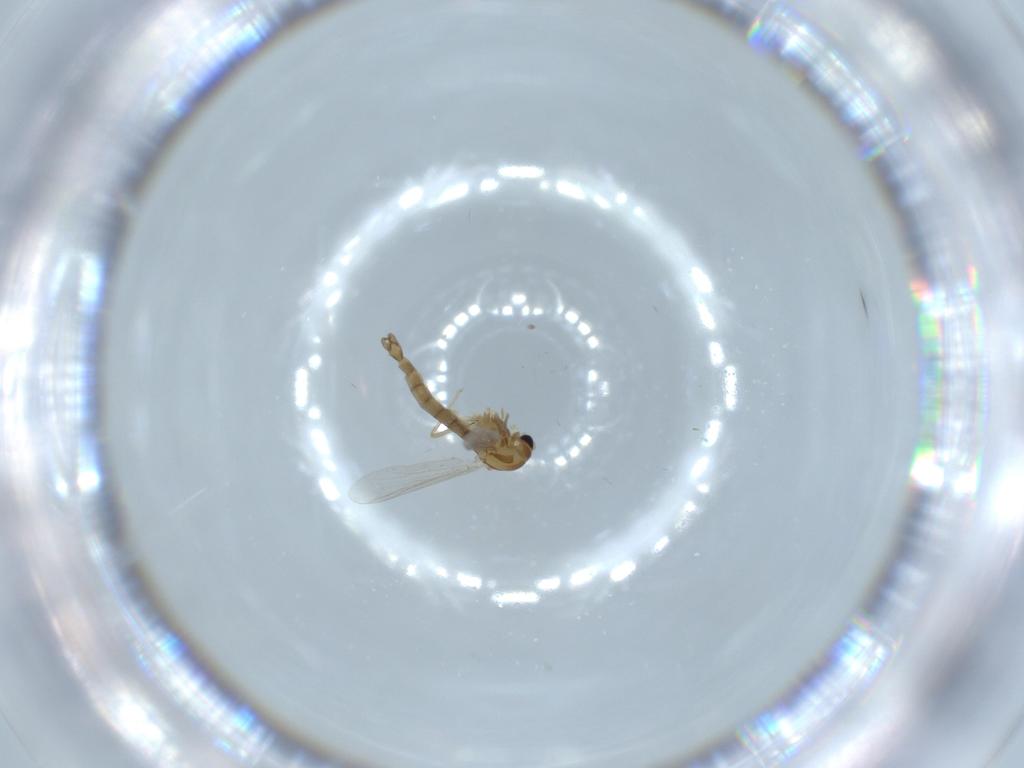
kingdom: Animalia
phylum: Arthropoda
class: Insecta
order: Diptera
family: Chironomidae
